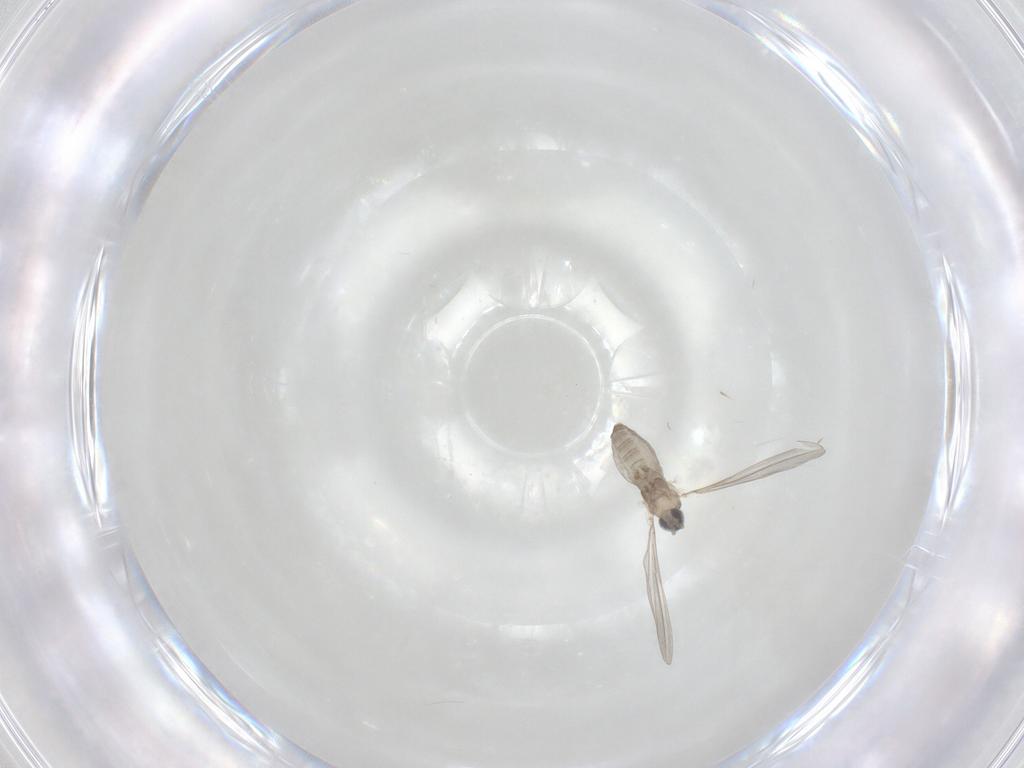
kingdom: Animalia
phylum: Arthropoda
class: Insecta
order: Diptera
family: Cecidomyiidae
